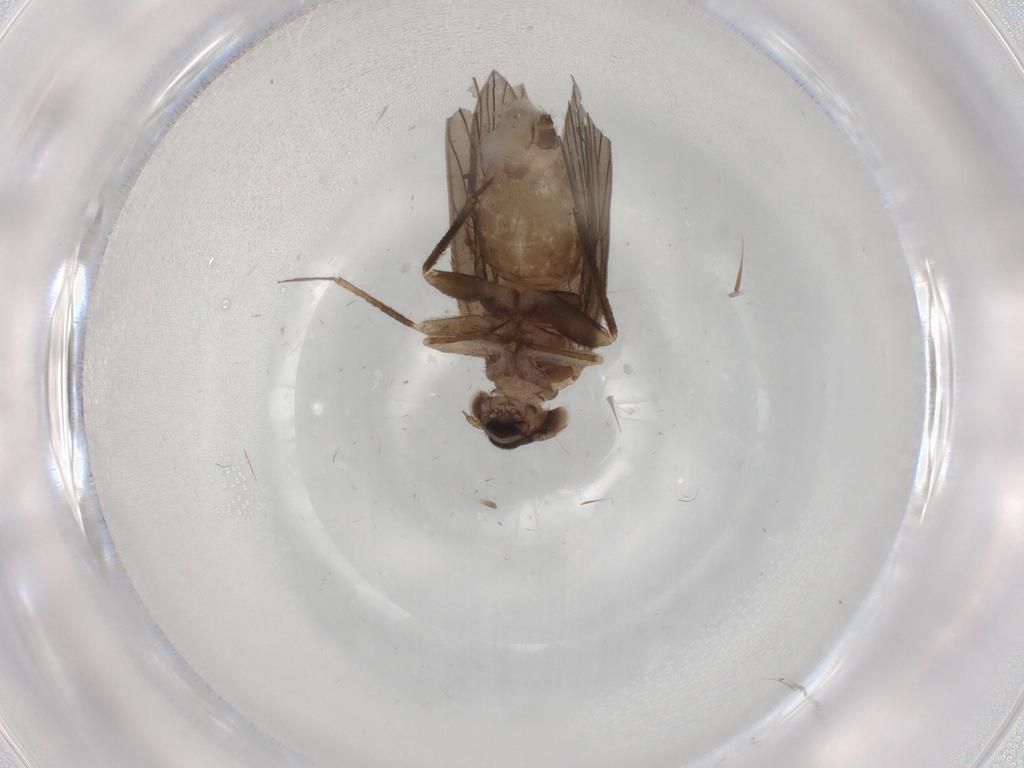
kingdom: Animalia
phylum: Arthropoda
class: Insecta
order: Psocodea
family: Lepidopsocidae
